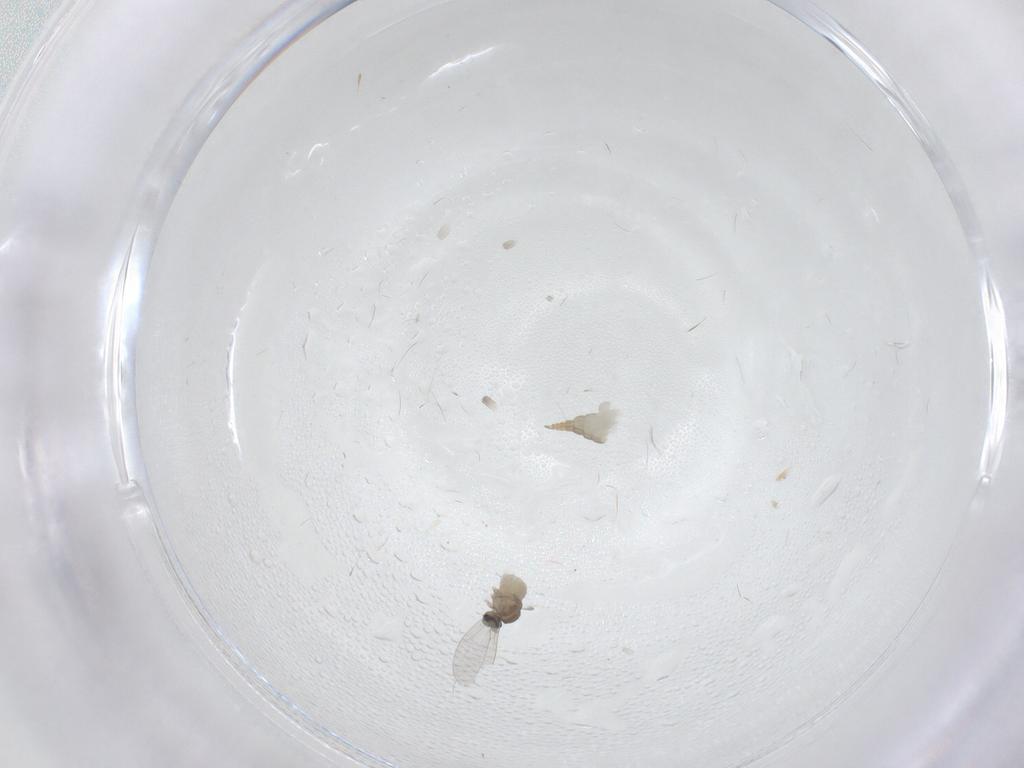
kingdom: Animalia
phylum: Arthropoda
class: Insecta
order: Diptera
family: Cecidomyiidae
